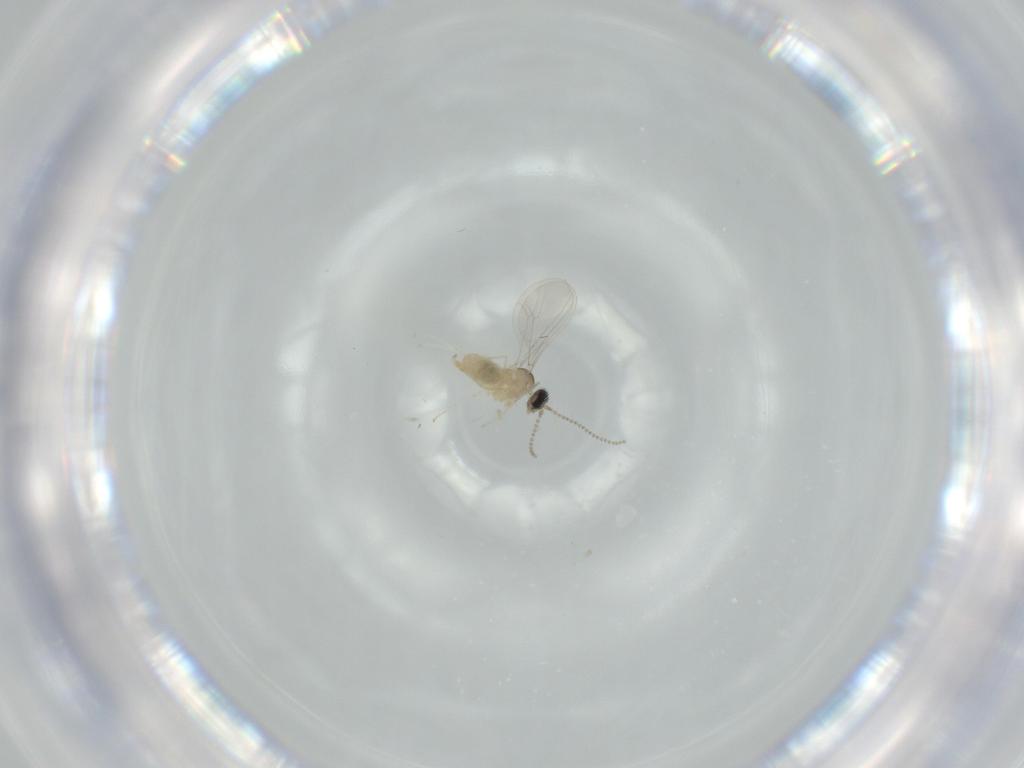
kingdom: Animalia
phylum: Arthropoda
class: Insecta
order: Diptera
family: Cecidomyiidae
